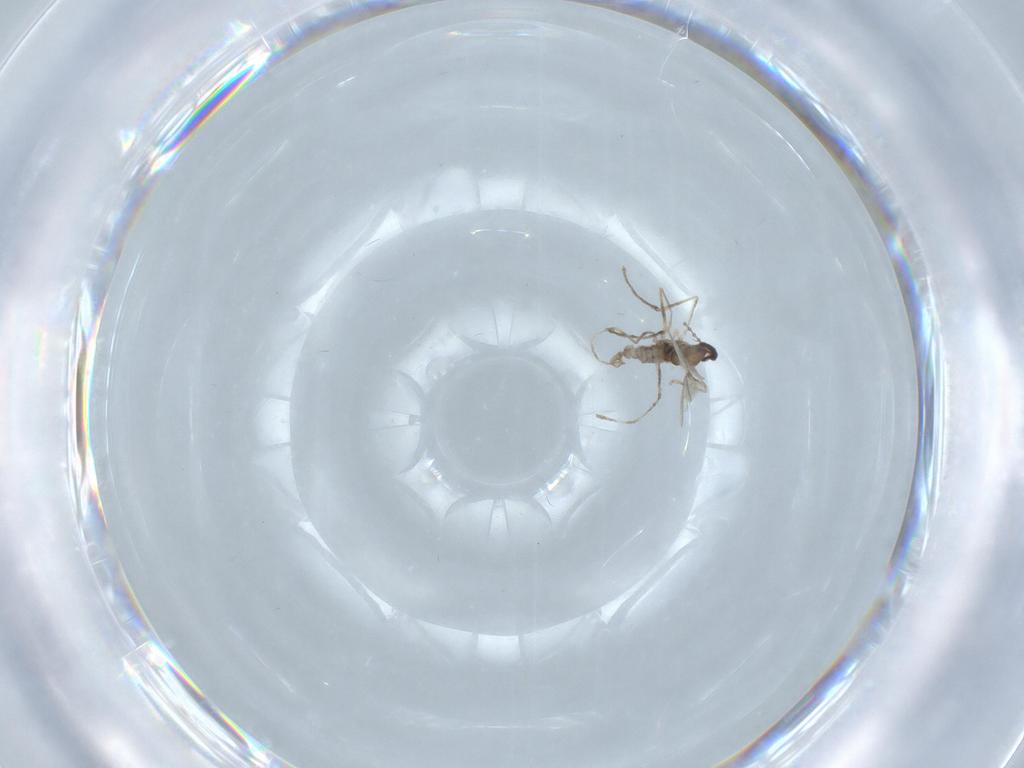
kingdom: Animalia
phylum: Arthropoda
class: Insecta
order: Diptera
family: Cecidomyiidae
